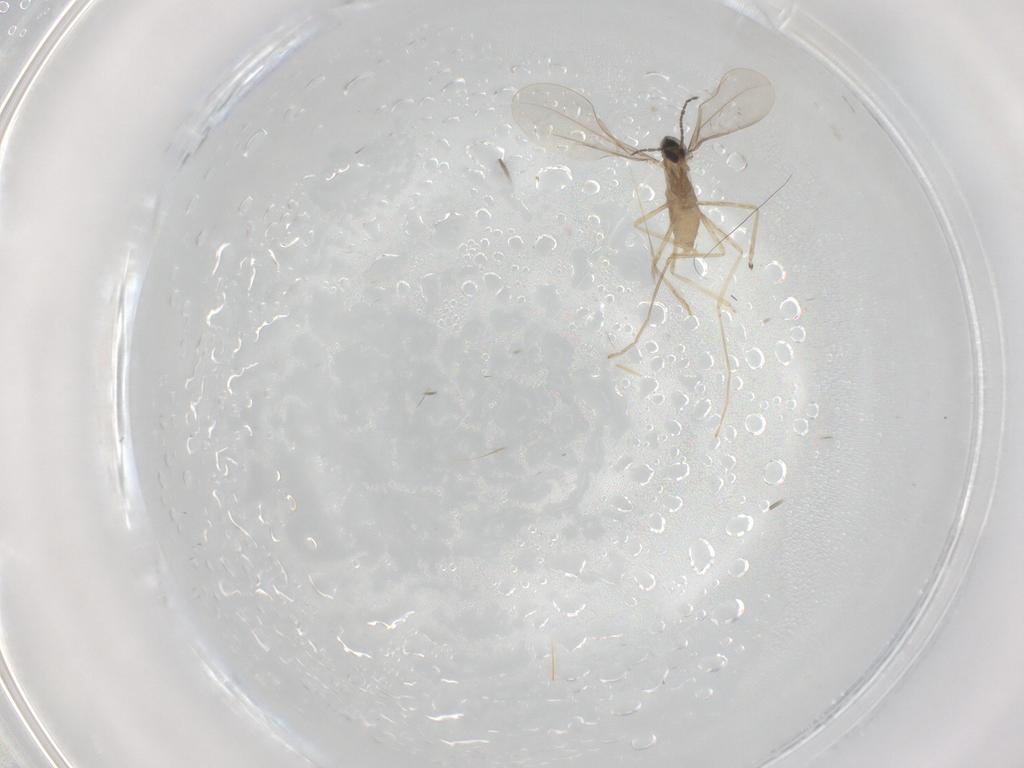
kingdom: Animalia
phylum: Arthropoda
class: Insecta
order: Diptera
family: Cecidomyiidae
